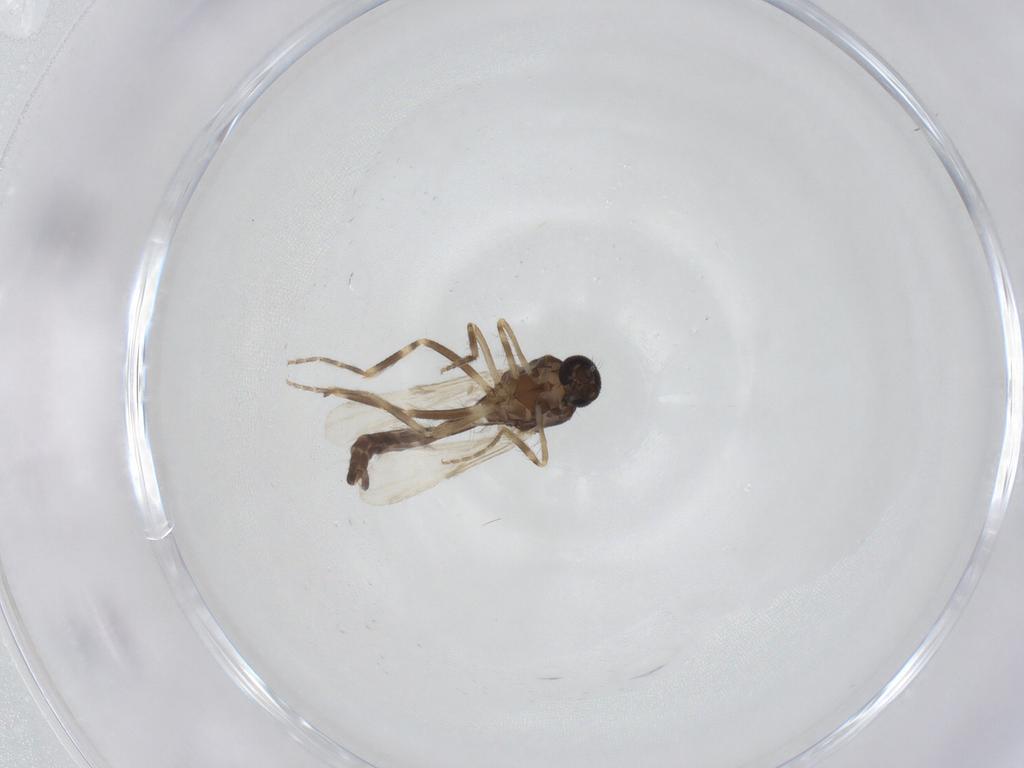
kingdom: Animalia
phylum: Arthropoda
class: Insecta
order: Diptera
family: Ceratopogonidae
